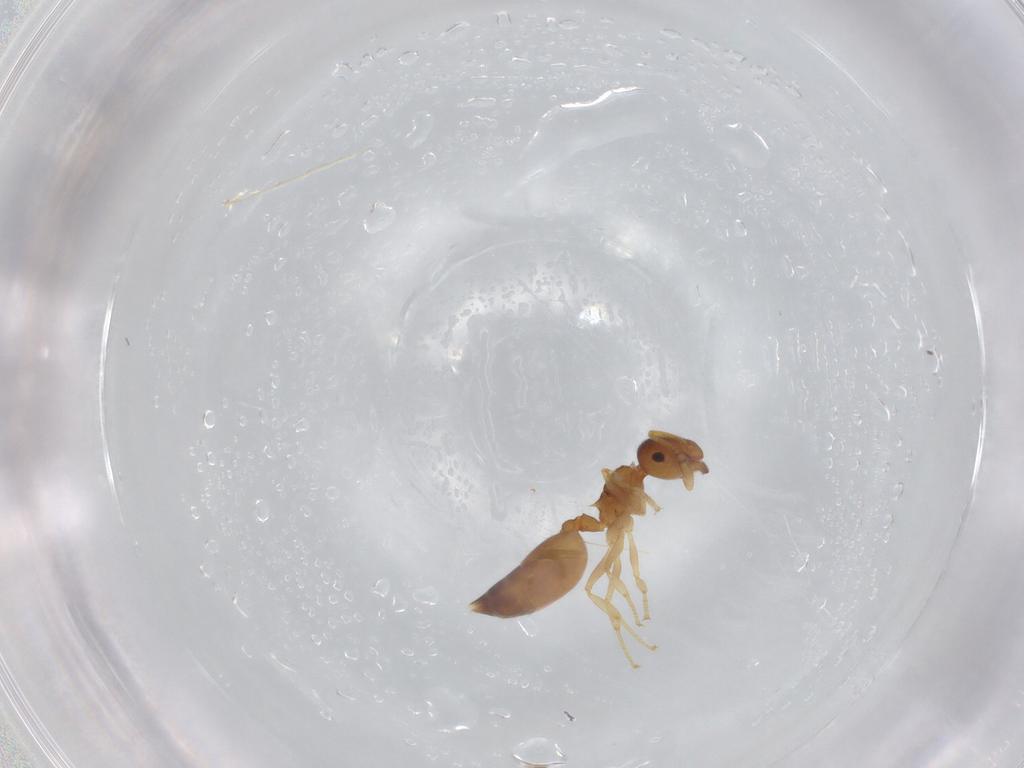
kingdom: Animalia
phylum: Arthropoda
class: Insecta
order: Hymenoptera
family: Formicidae
